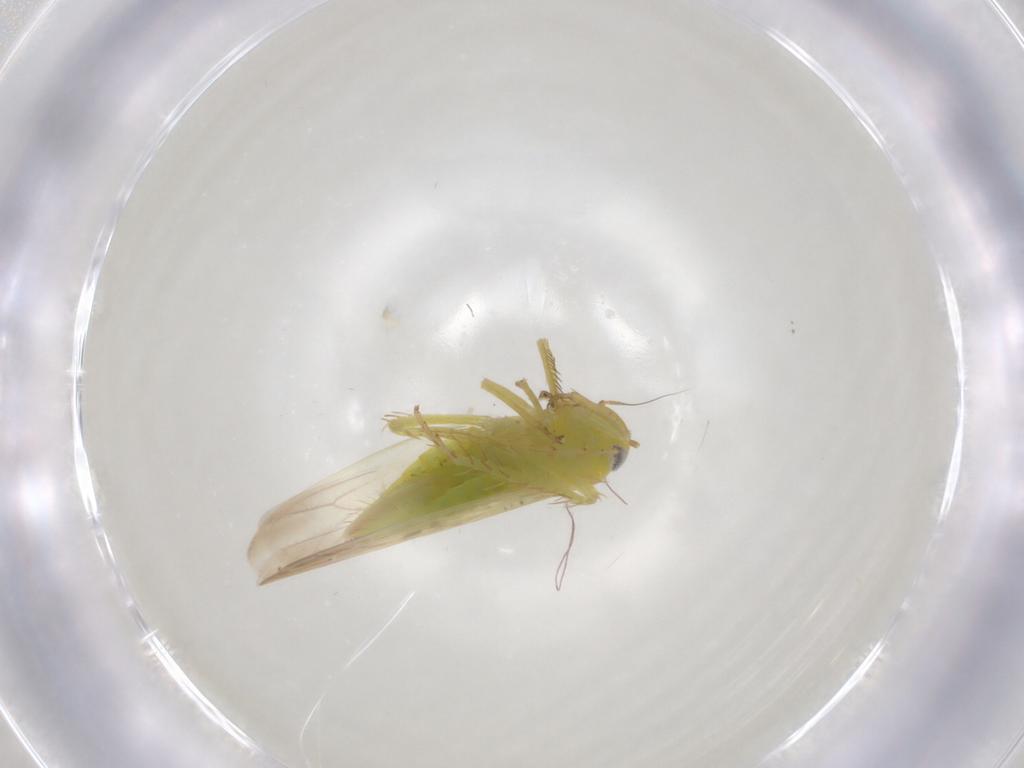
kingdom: Animalia
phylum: Arthropoda
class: Insecta
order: Hemiptera
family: Cicadellidae
